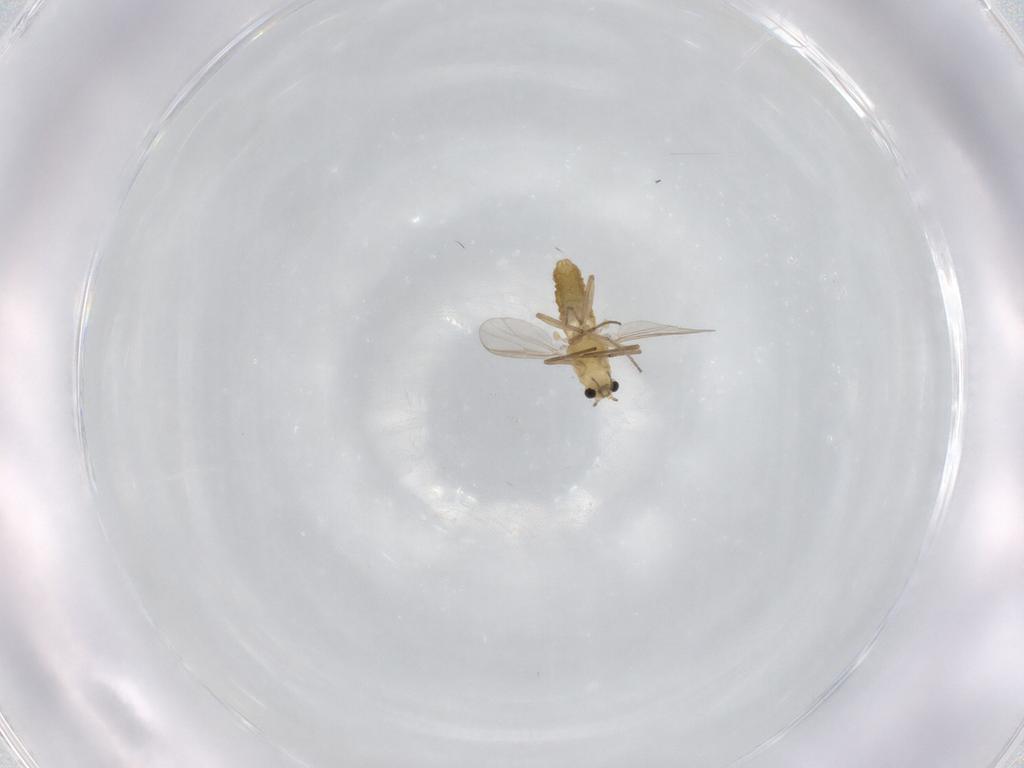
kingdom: Animalia
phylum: Arthropoda
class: Insecta
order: Diptera
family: Chironomidae
